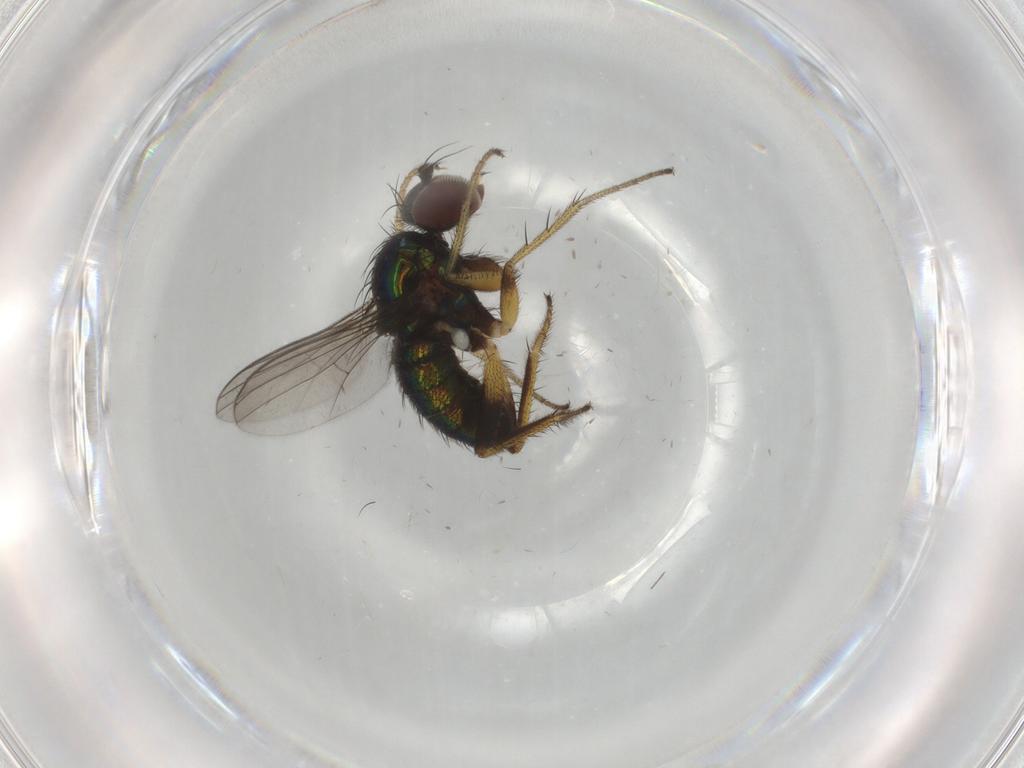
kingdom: Animalia
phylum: Arthropoda
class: Insecta
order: Diptera
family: Dolichopodidae
